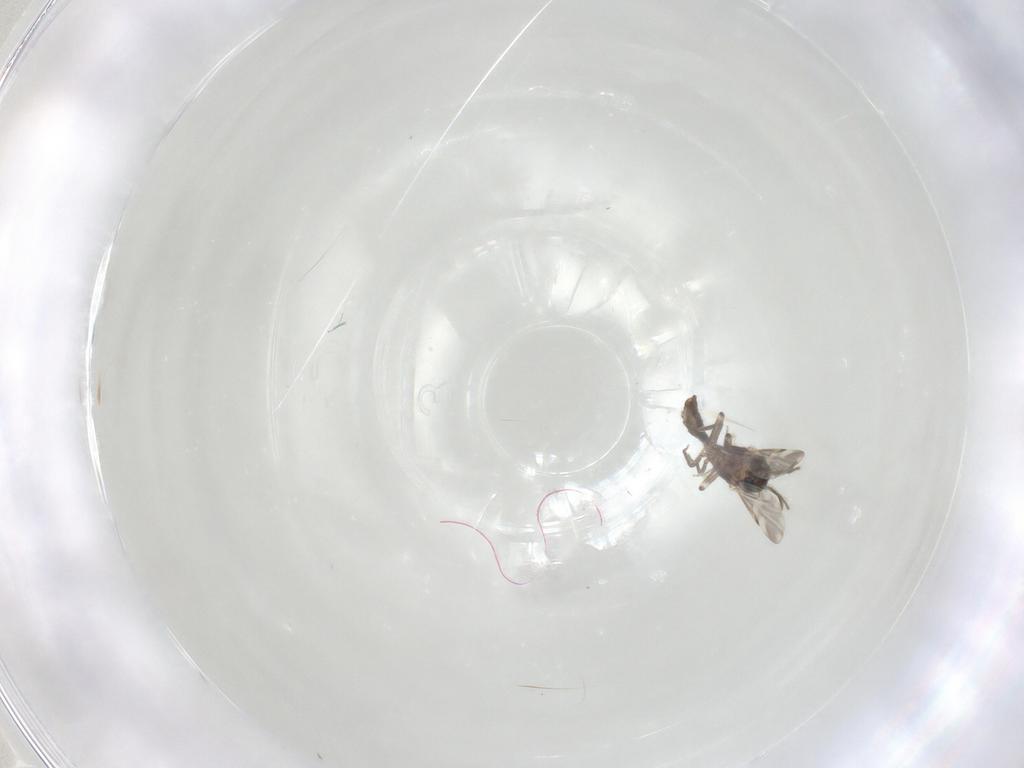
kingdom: Animalia
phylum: Arthropoda
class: Insecta
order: Diptera
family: Ceratopogonidae
